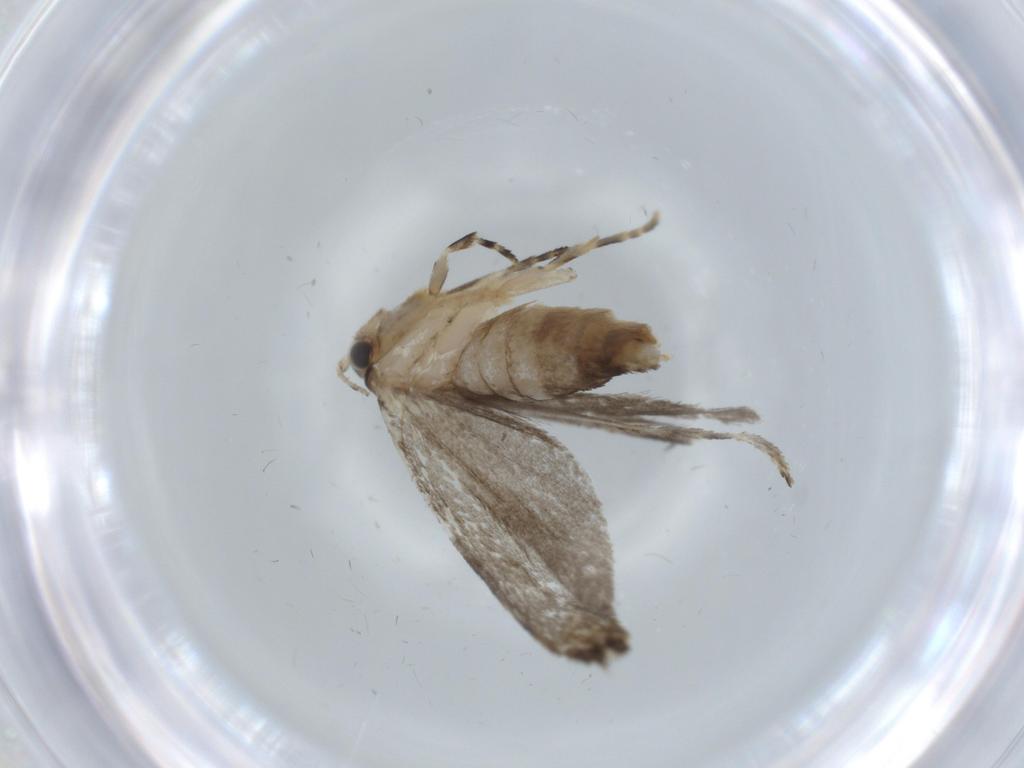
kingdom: Animalia
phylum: Arthropoda
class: Insecta
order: Lepidoptera
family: Tineidae
